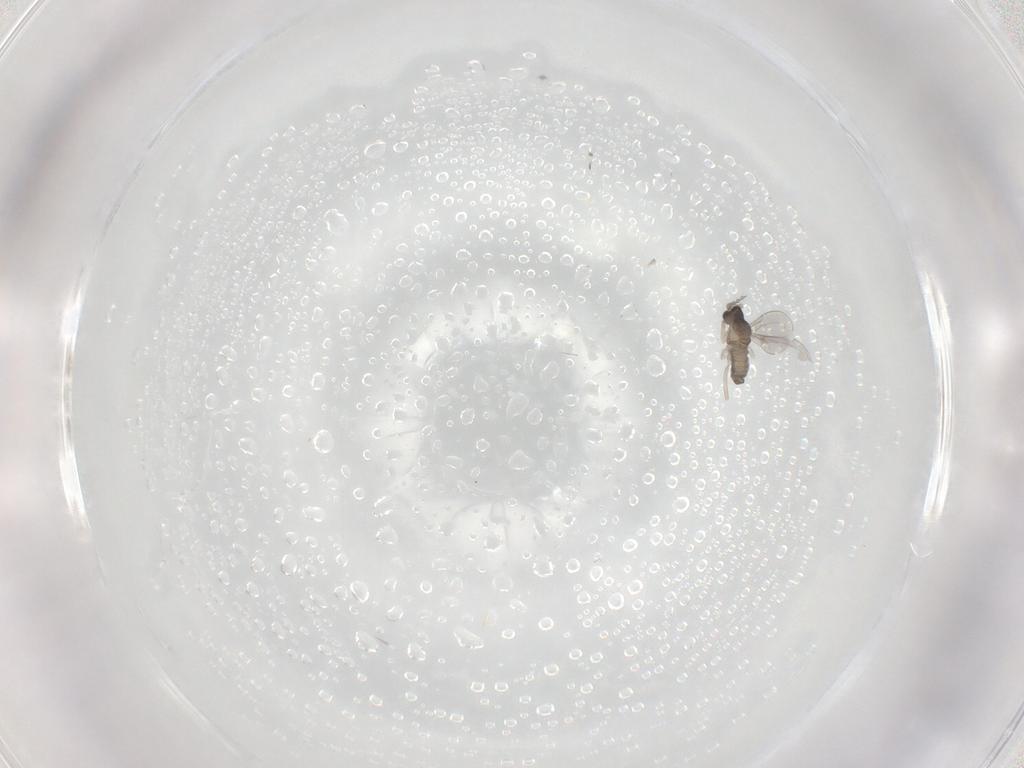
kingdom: Animalia
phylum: Arthropoda
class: Insecta
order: Diptera
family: Cecidomyiidae
